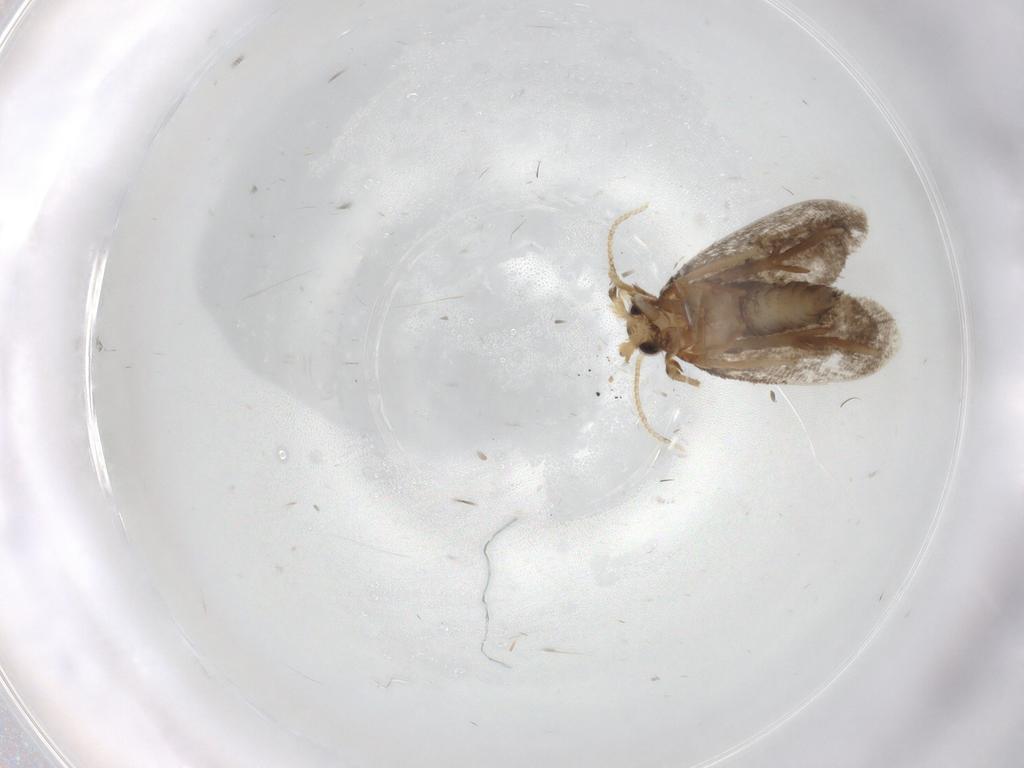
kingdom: Animalia
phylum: Arthropoda
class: Insecta
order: Lepidoptera
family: Psychidae
